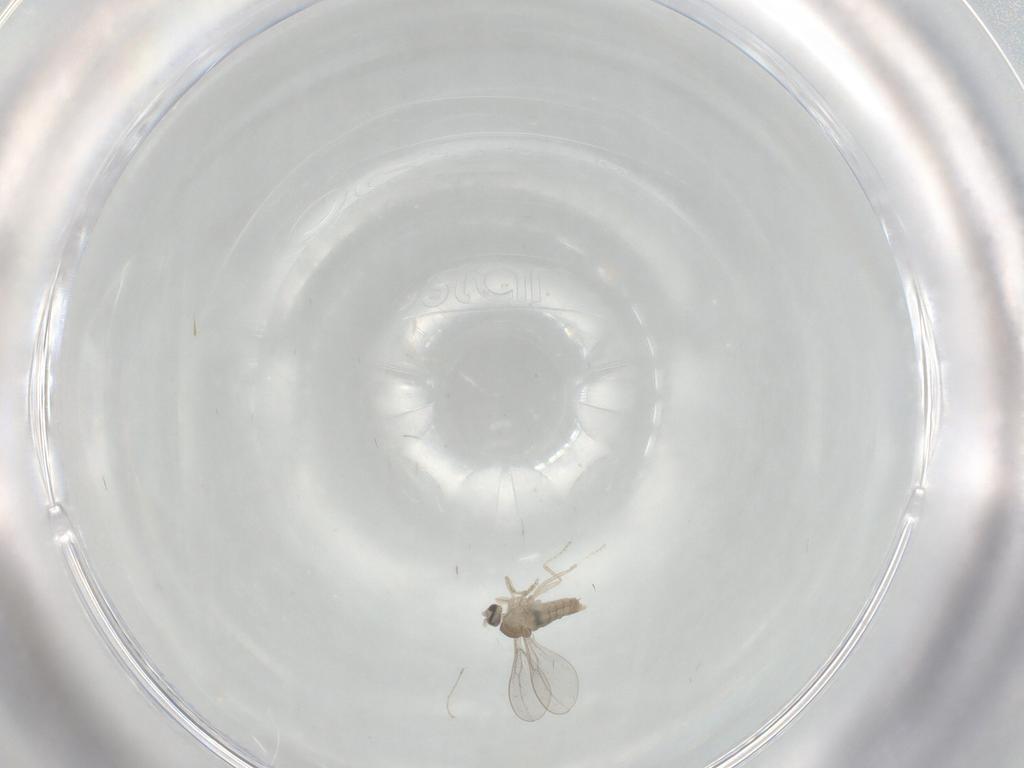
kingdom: Animalia
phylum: Arthropoda
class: Insecta
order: Diptera
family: Cecidomyiidae
